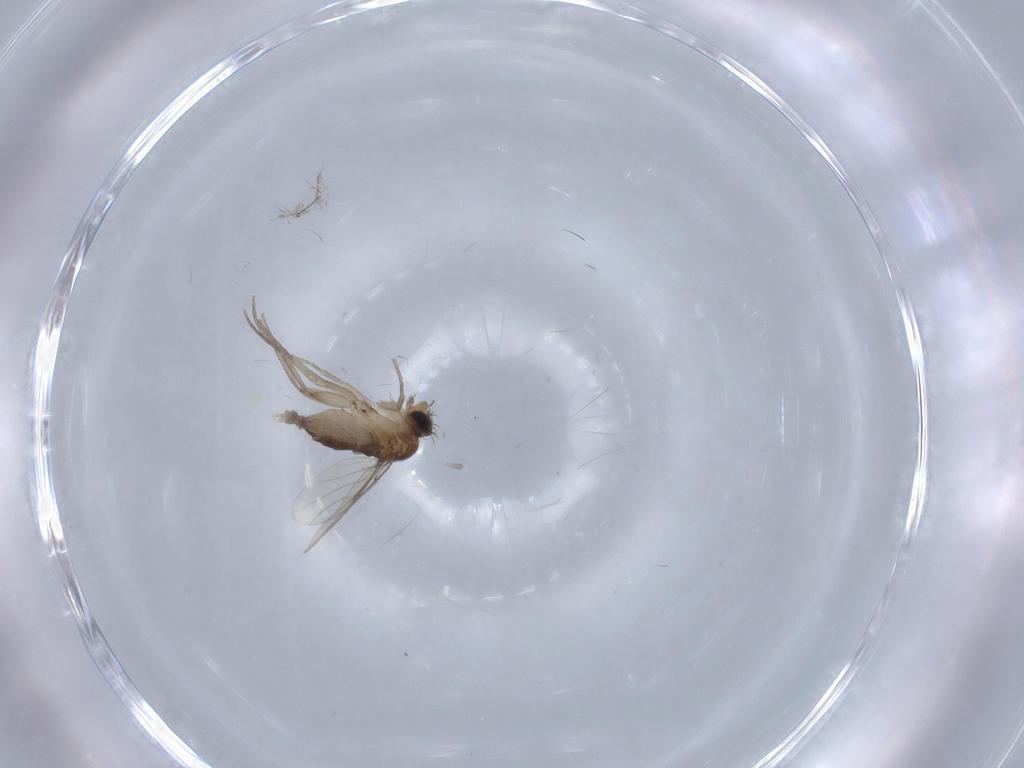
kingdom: Animalia
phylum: Arthropoda
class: Insecta
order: Diptera
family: Phoridae
